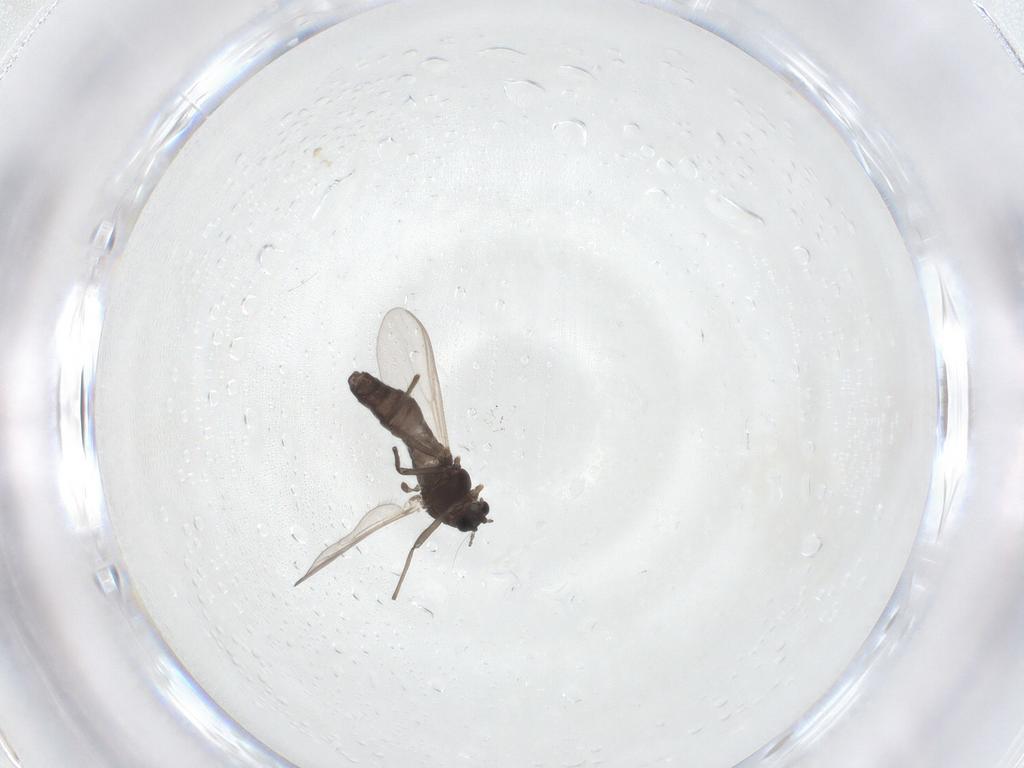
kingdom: Animalia
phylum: Arthropoda
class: Insecta
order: Diptera
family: Chironomidae
